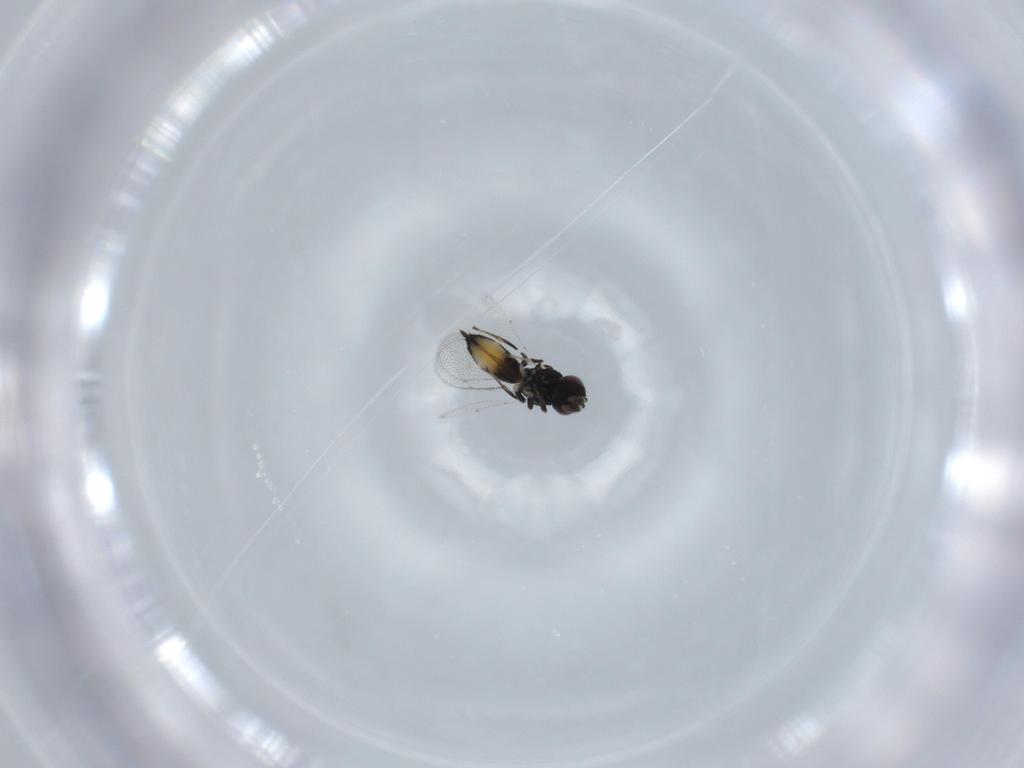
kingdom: Animalia
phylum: Arthropoda
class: Insecta
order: Hymenoptera
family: Pirenidae
